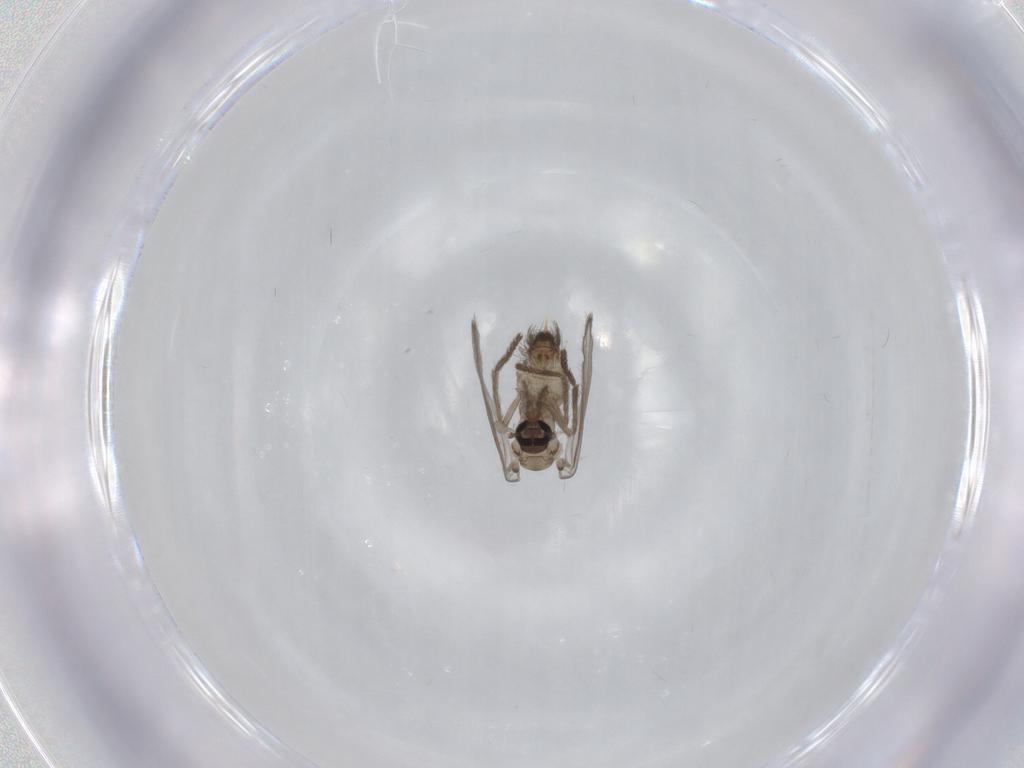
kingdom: Animalia
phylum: Arthropoda
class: Insecta
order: Diptera
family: Psychodidae
